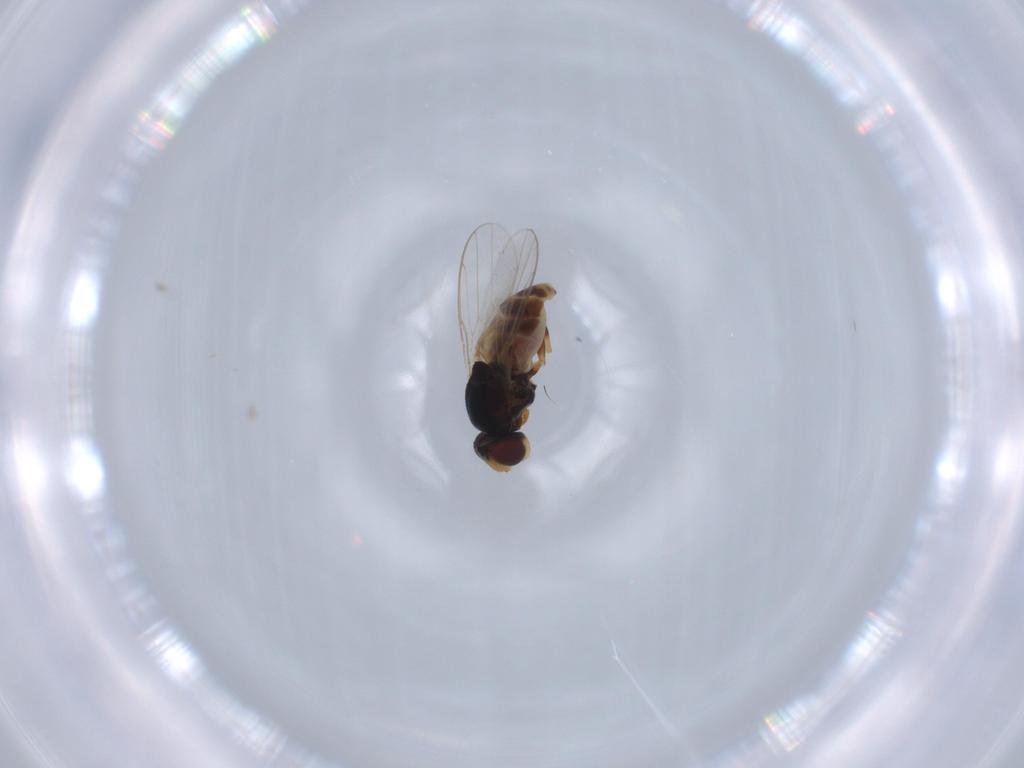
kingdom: Animalia
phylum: Arthropoda
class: Insecta
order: Diptera
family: Chloropidae
